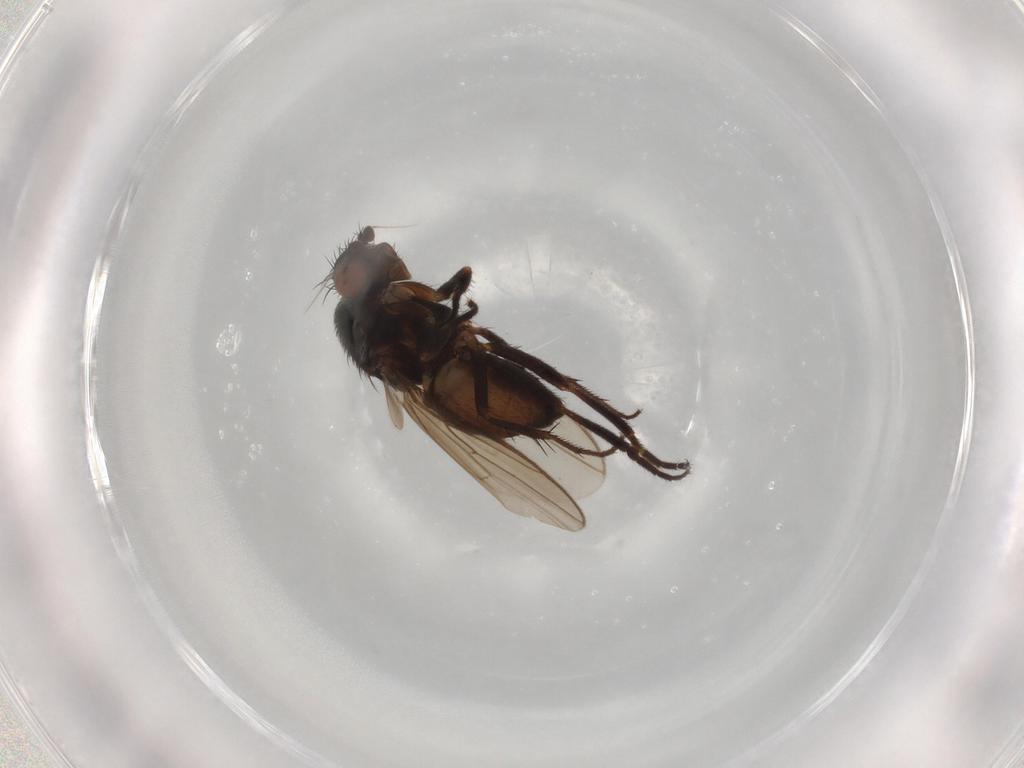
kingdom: Animalia
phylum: Arthropoda
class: Insecta
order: Diptera
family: Sphaeroceridae
